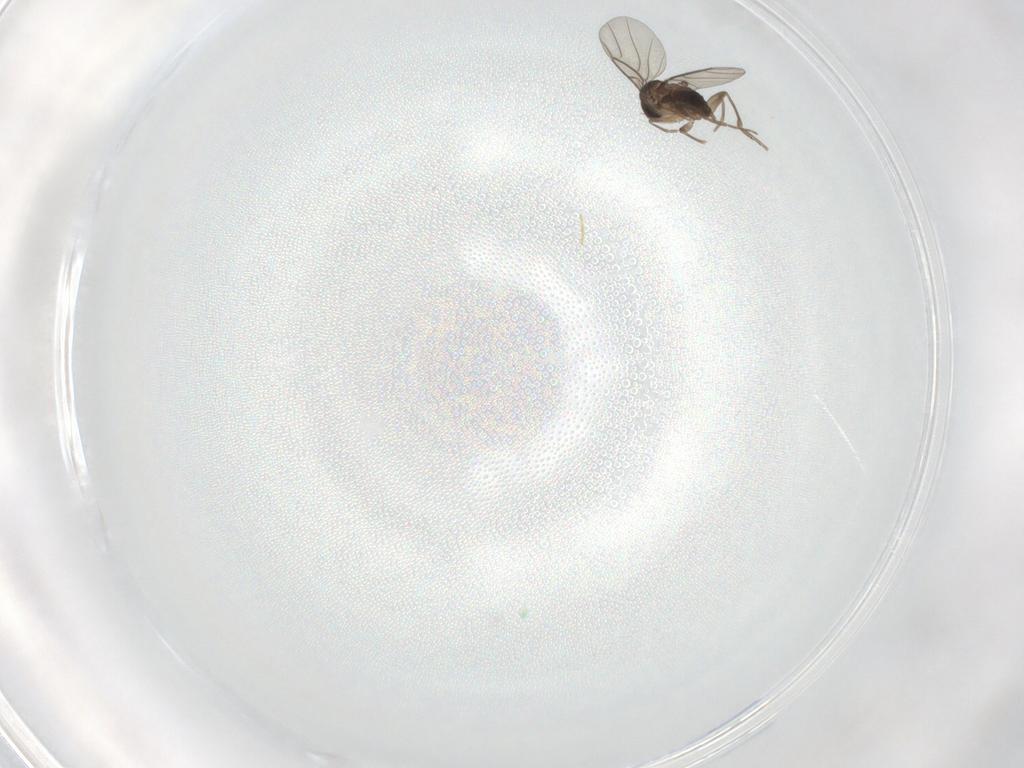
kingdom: Animalia
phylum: Arthropoda
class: Insecta
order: Diptera
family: Phoridae
